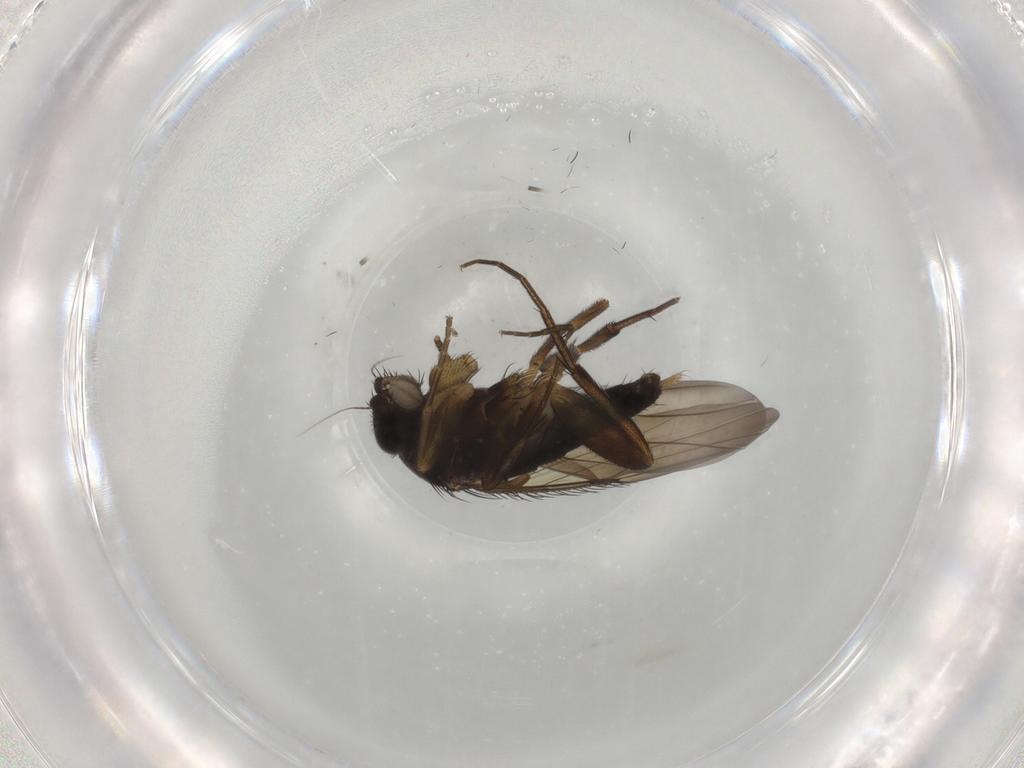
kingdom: Animalia
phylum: Arthropoda
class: Insecta
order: Diptera
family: Phoridae
